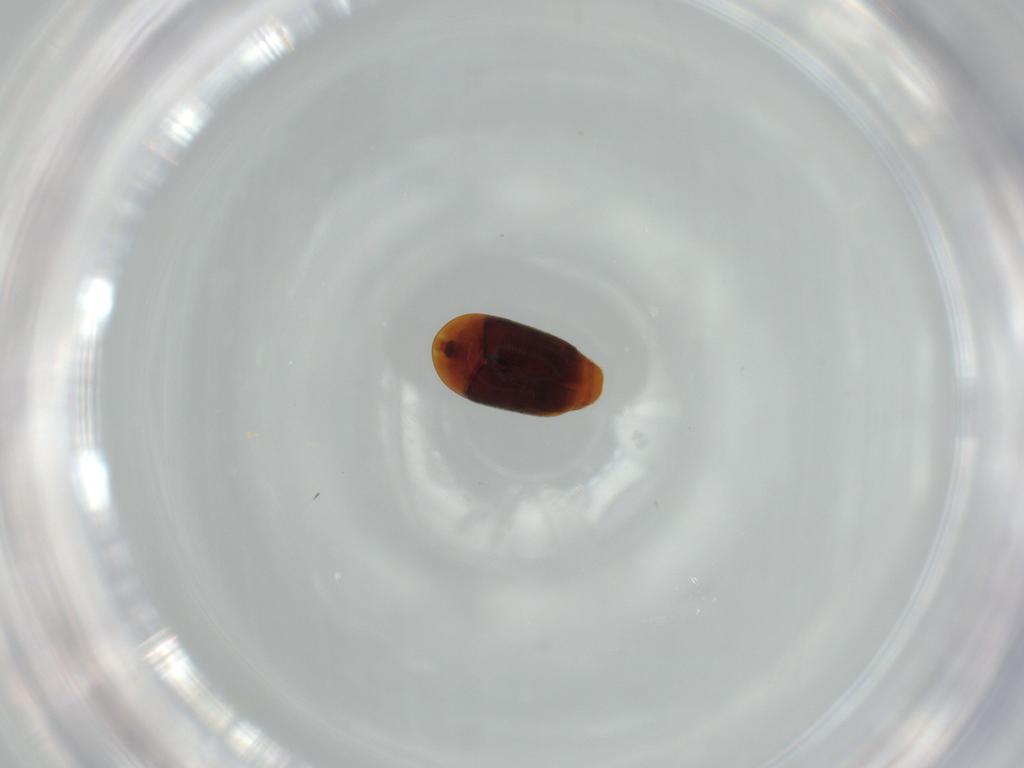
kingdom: Animalia
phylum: Arthropoda
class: Insecta
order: Coleoptera
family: Corylophidae
